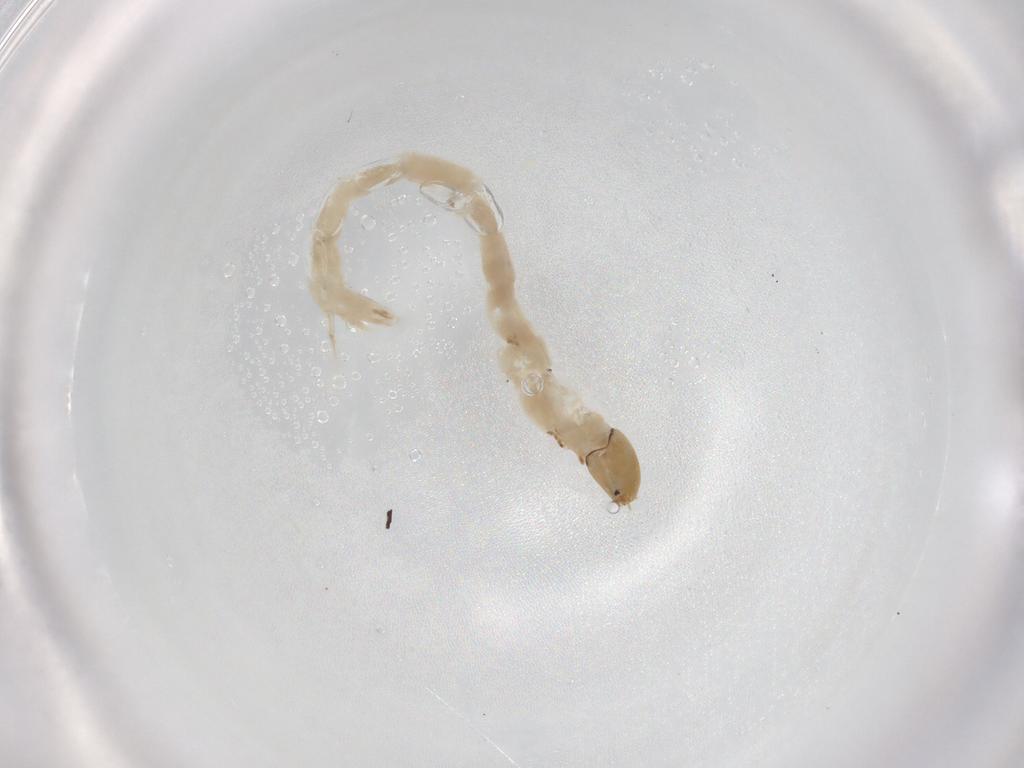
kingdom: Animalia
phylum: Arthropoda
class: Insecta
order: Diptera
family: Chironomidae
